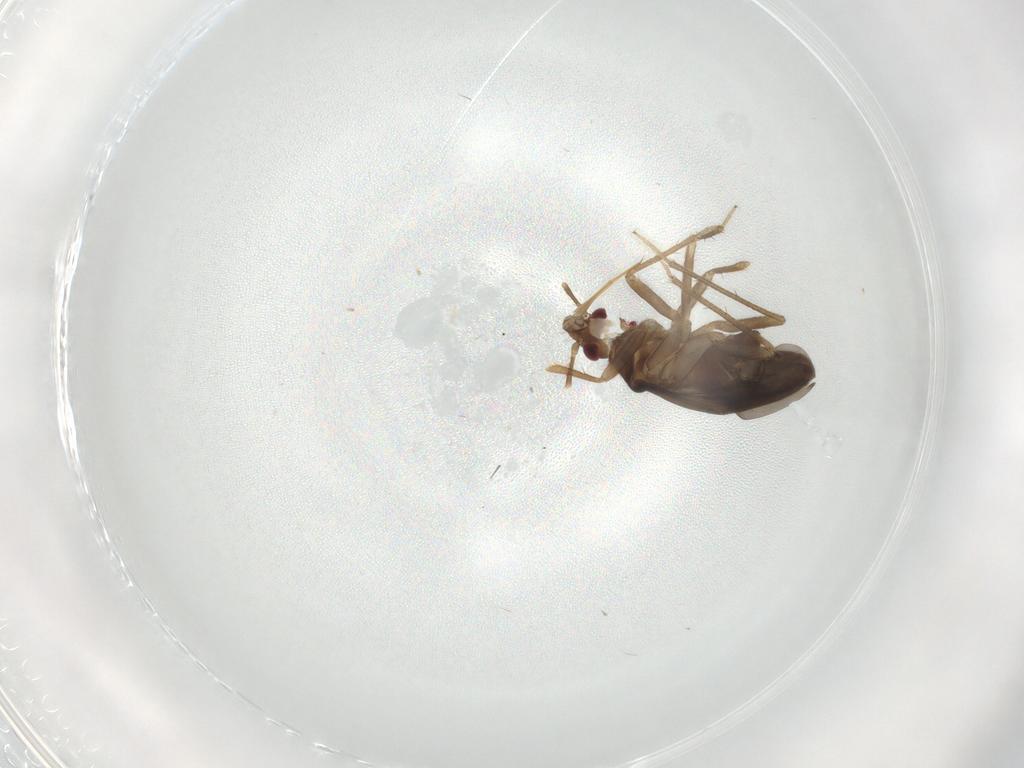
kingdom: Animalia
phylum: Arthropoda
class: Insecta
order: Hemiptera
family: Ceratocombidae
